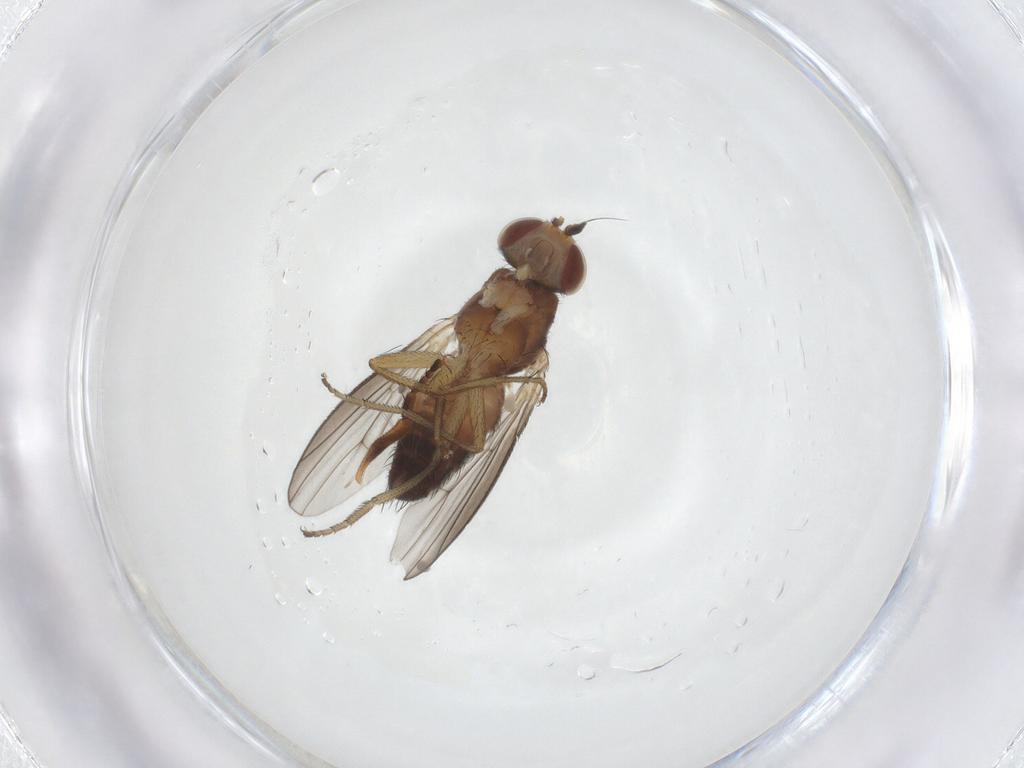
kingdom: Animalia
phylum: Arthropoda
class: Insecta
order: Diptera
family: Heleomyzidae
